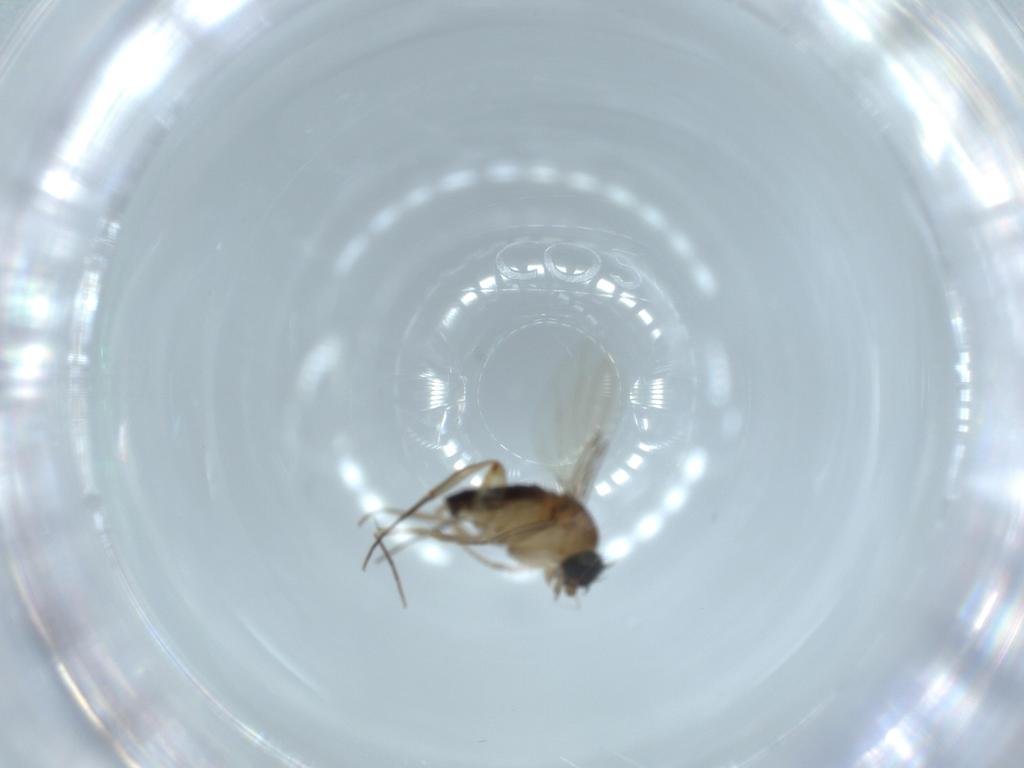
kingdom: Animalia
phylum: Arthropoda
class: Insecta
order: Diptera
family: Phoridae
